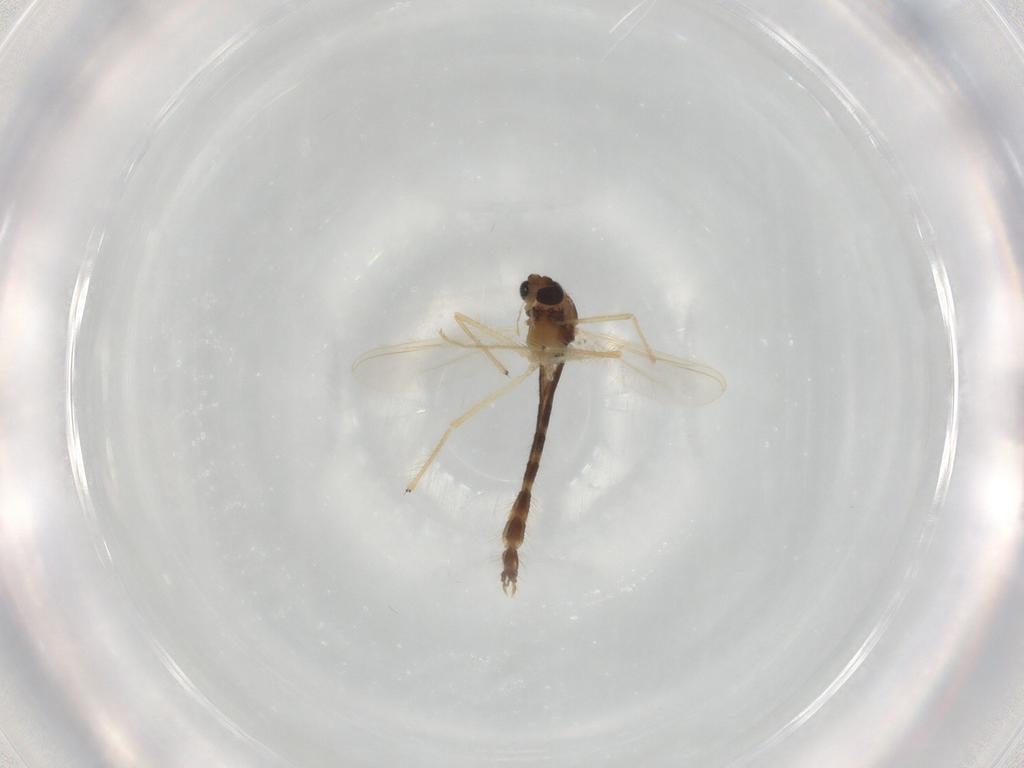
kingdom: Animalia
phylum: Arthropoda
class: Insecta
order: Diptera
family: Chironomidae
